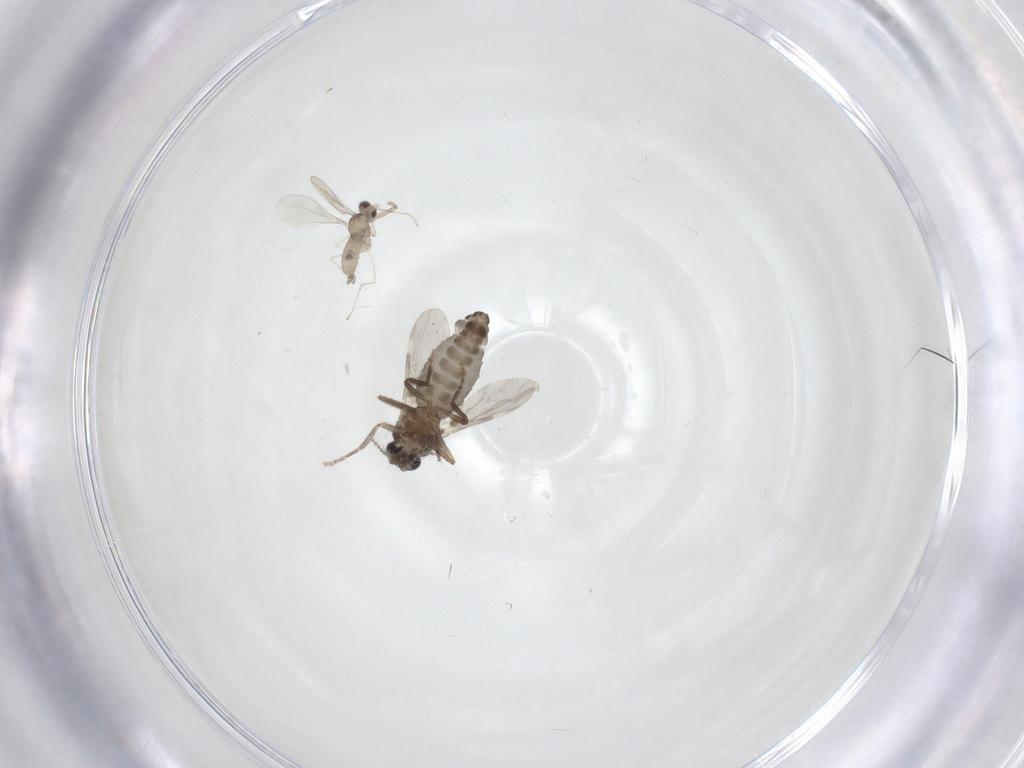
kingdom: Animalia
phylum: Arthropoda
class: Insecta
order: Diptera
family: Ceratopogonidae
